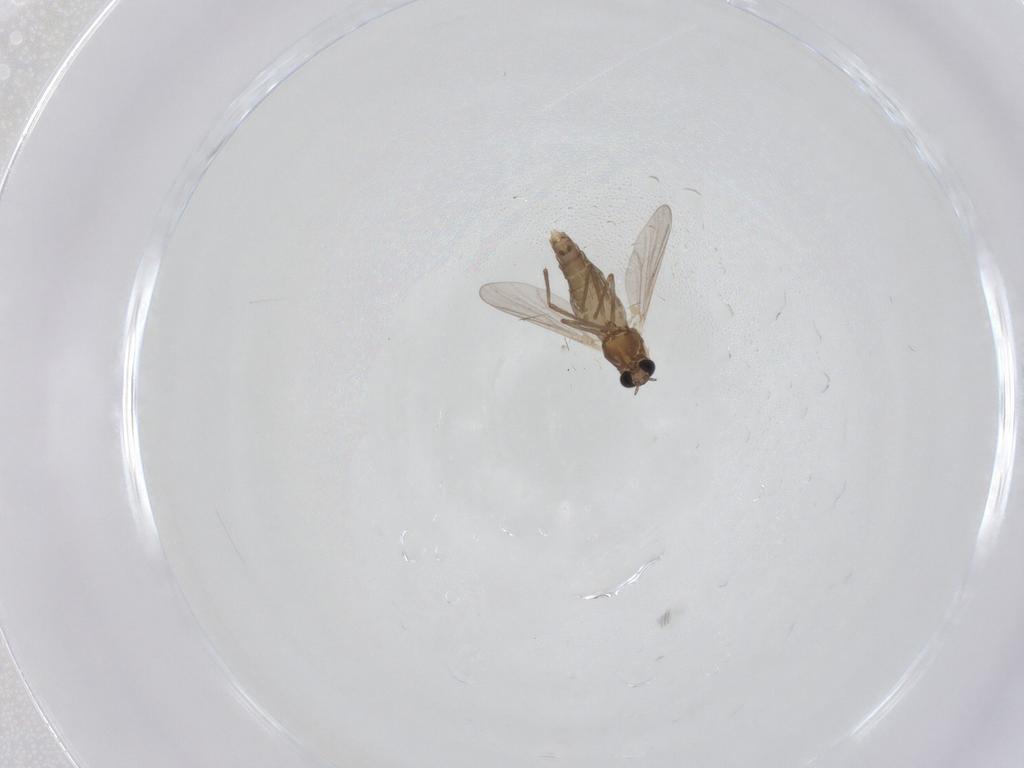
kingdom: Animalia
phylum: Arthropoda
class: Insecta
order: Diptera
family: Chironomidae
